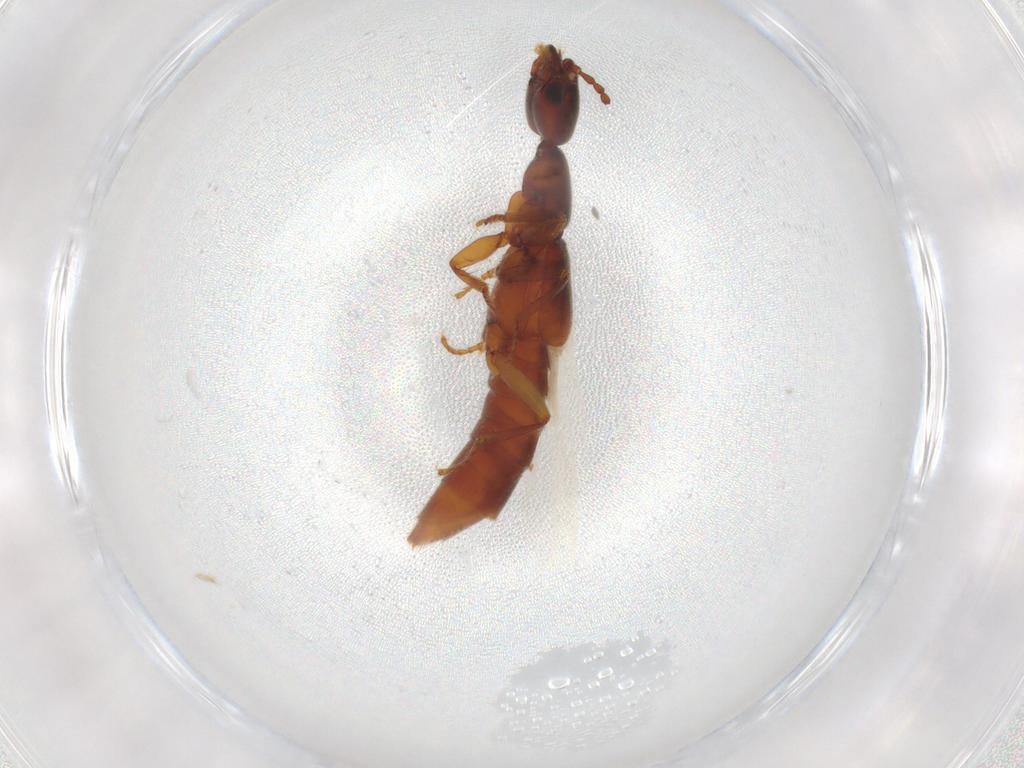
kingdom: Animalia
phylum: Arthropoda
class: Insecta
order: Coleoptera
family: Staphylinidae
